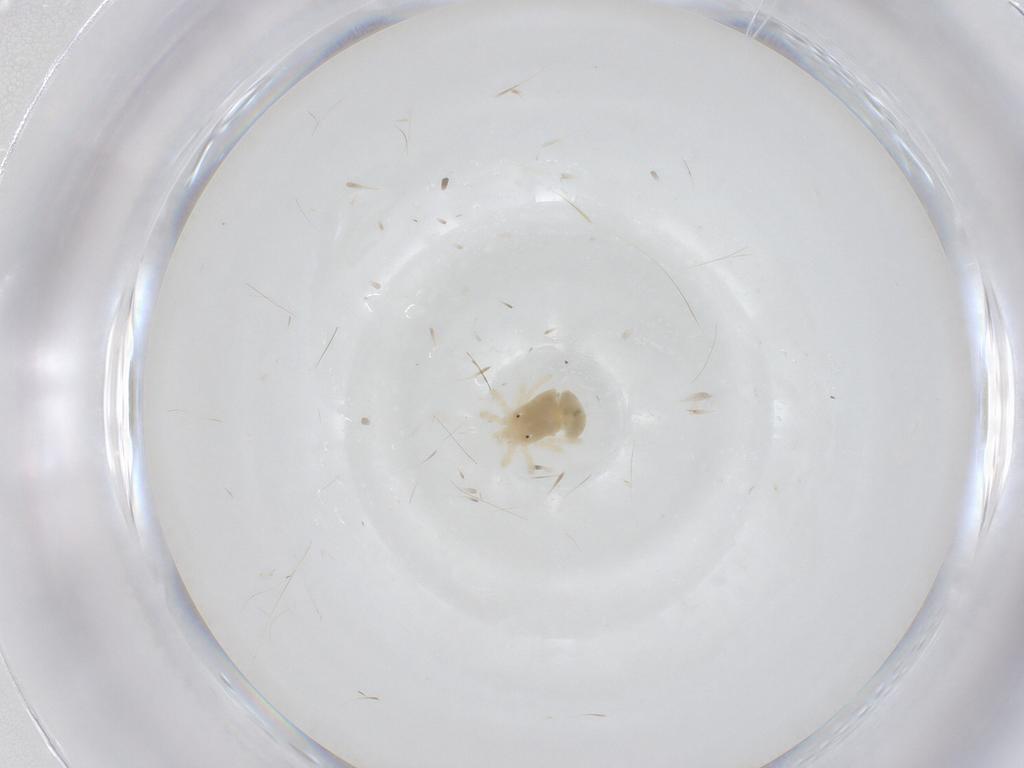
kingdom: Animalia
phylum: Arthropoda
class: Arachnida
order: Trombidiformes
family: Anystidae
